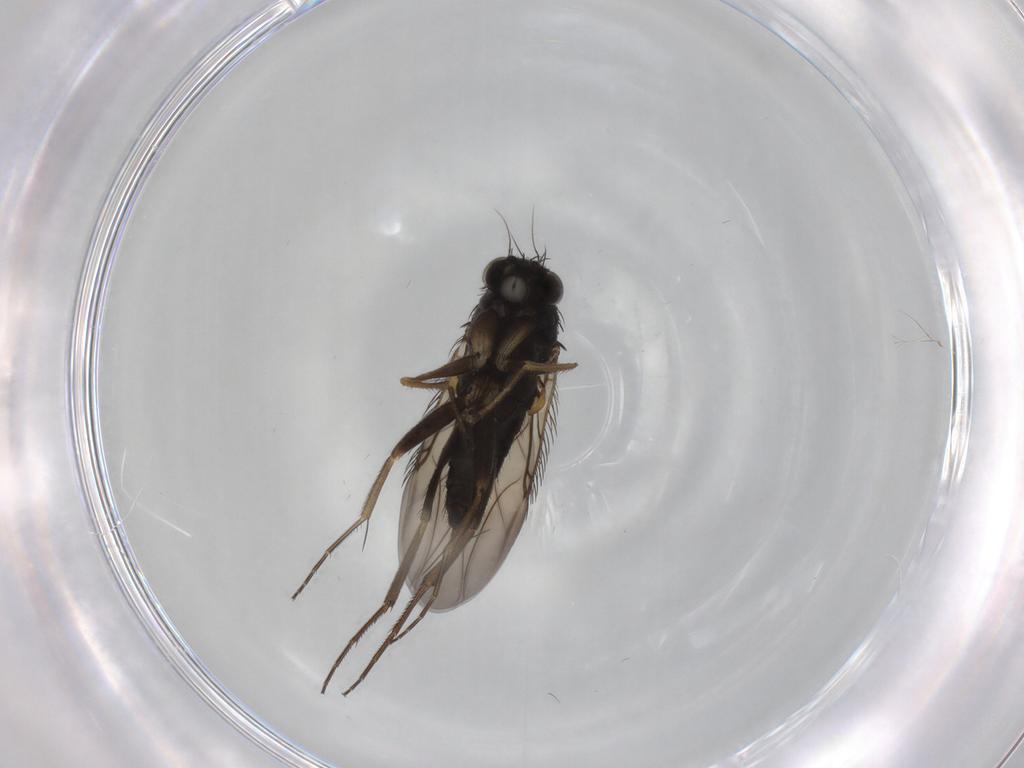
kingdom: Animalia
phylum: Arthropoda
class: Insecta
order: Diptera
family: Phoridae
